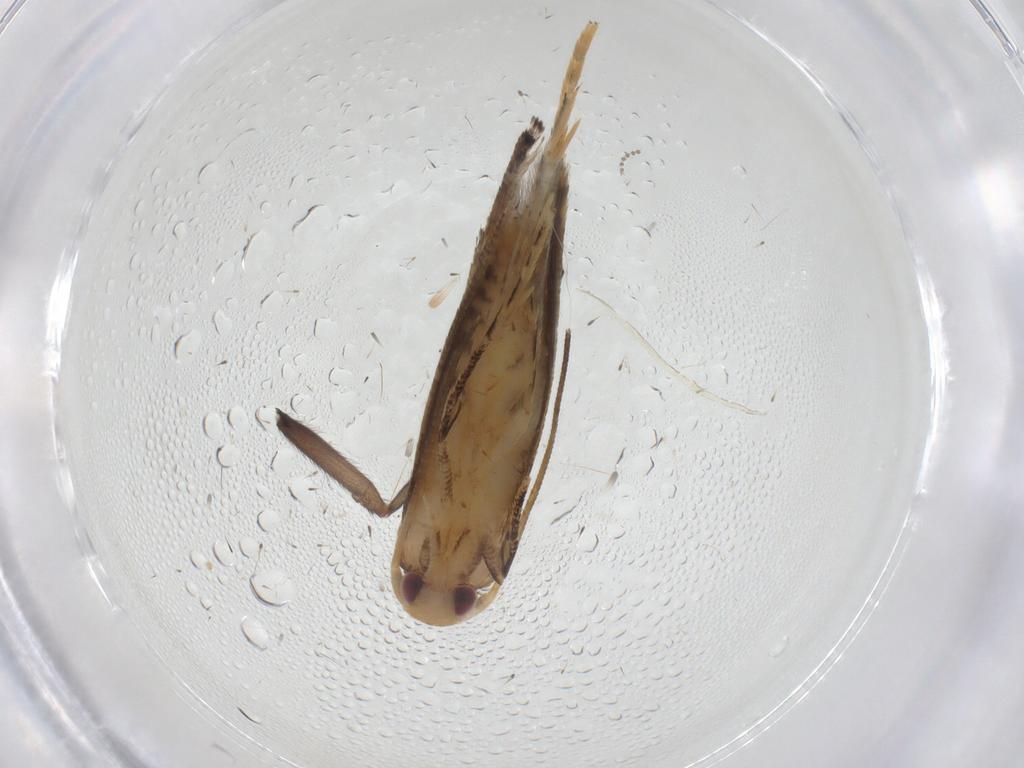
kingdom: Animalia
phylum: Arthropoda
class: Insecta
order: Lepidoptera
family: Momphidae
